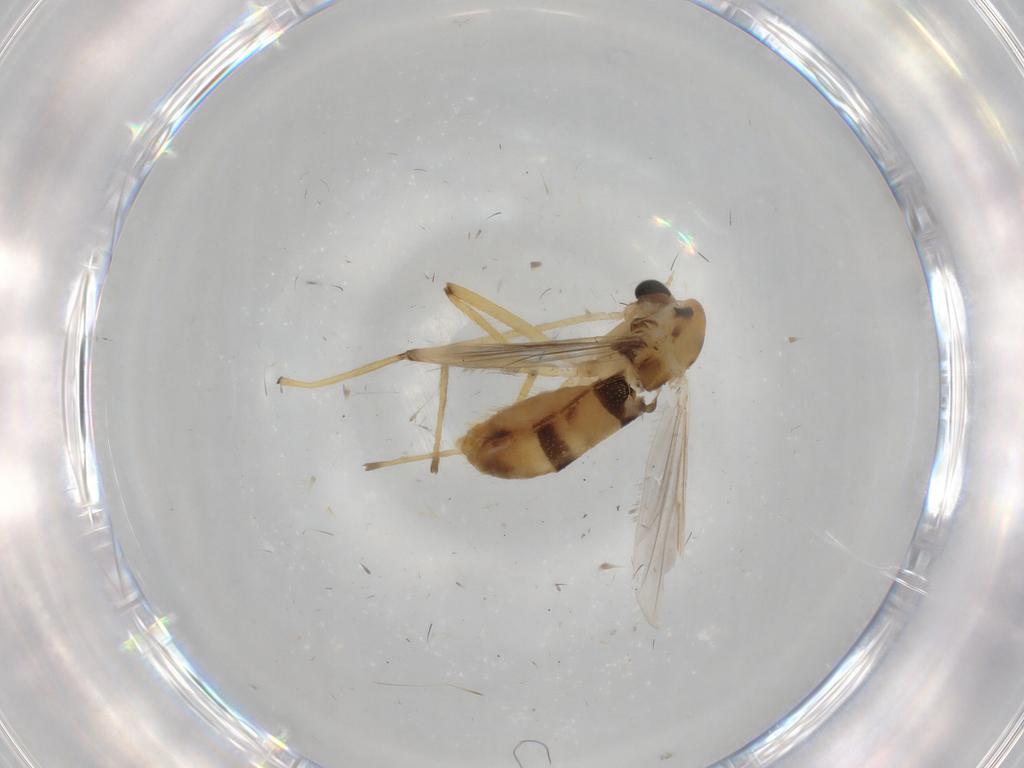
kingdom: Animalia
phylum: Arthropoda
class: Insecta
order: Diptera
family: Chironomidae
